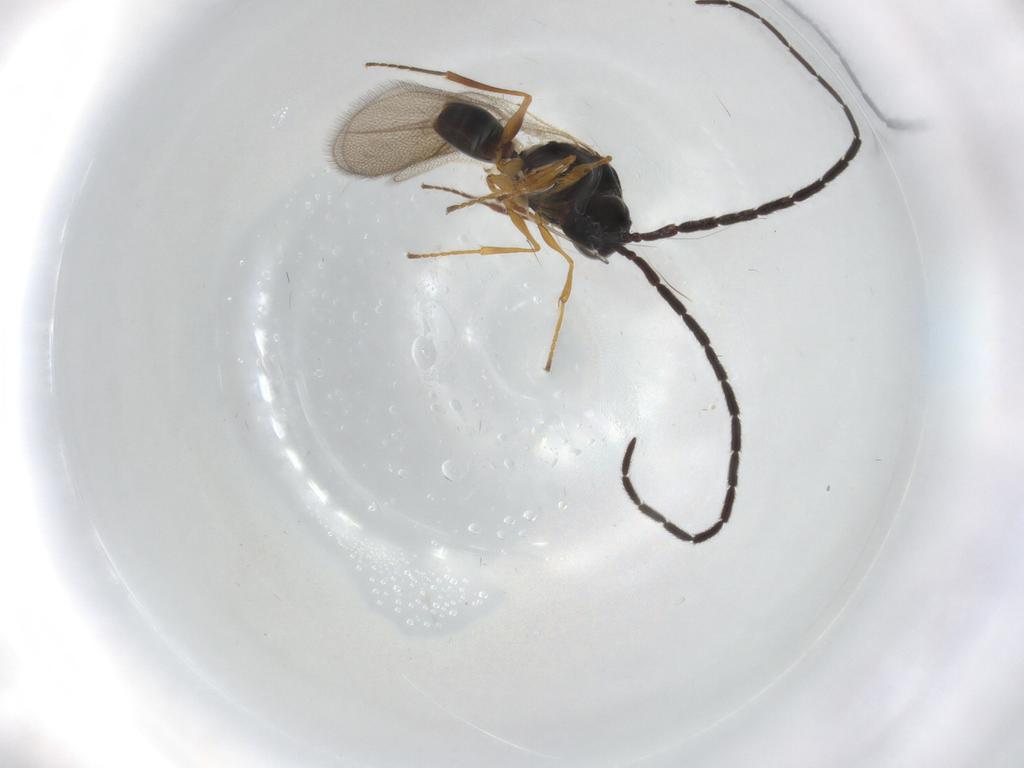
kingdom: Animalia
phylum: Arthropoda
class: Insecta
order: Hymenoptera
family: Figitidae
